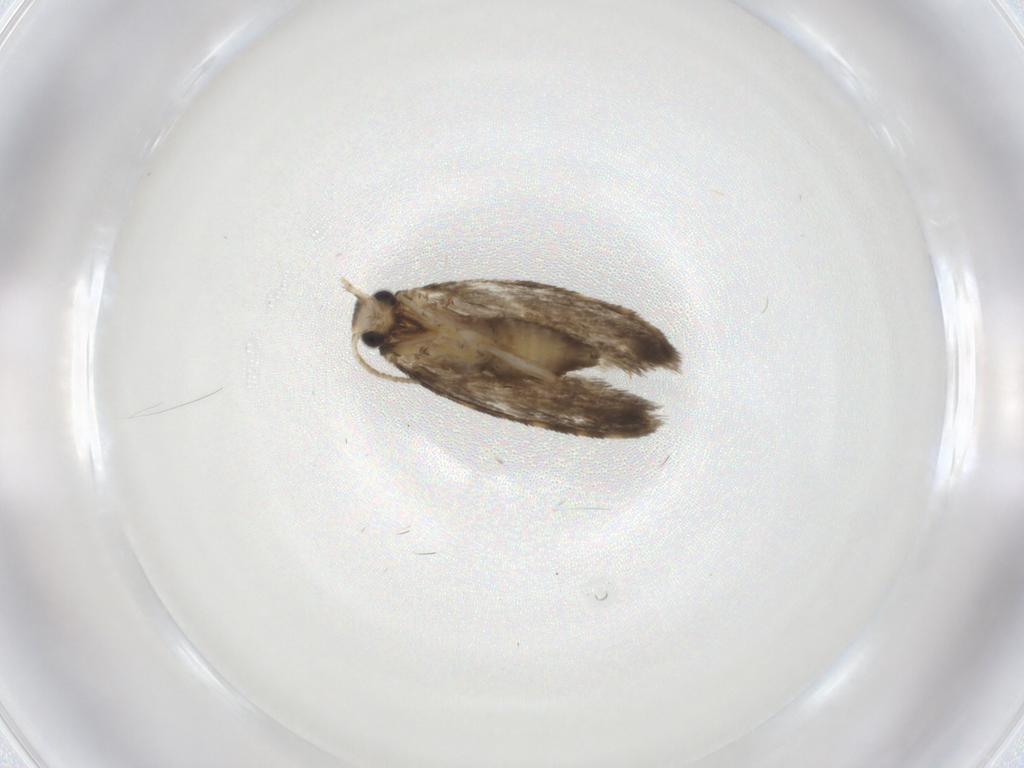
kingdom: Animalia
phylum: Arthropoda
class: Insecta
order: Lepidoptera
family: Psychidae
